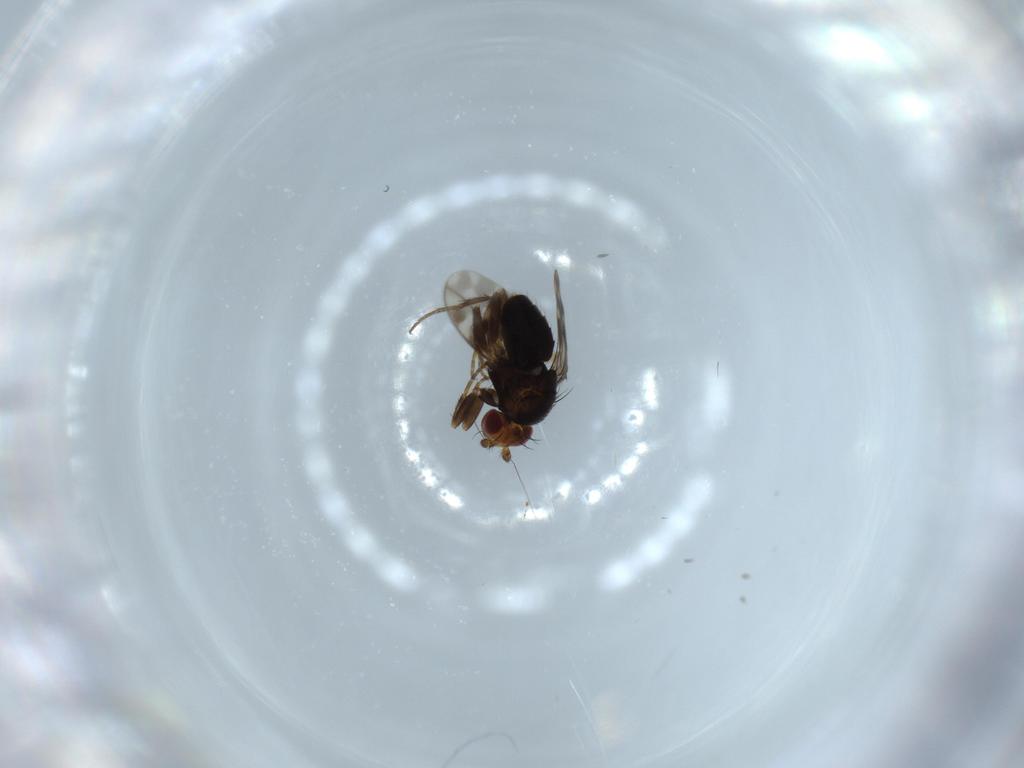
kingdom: Animalia
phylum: Arthropoda
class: Insecta
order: Diptera
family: Sphaeroceridae
